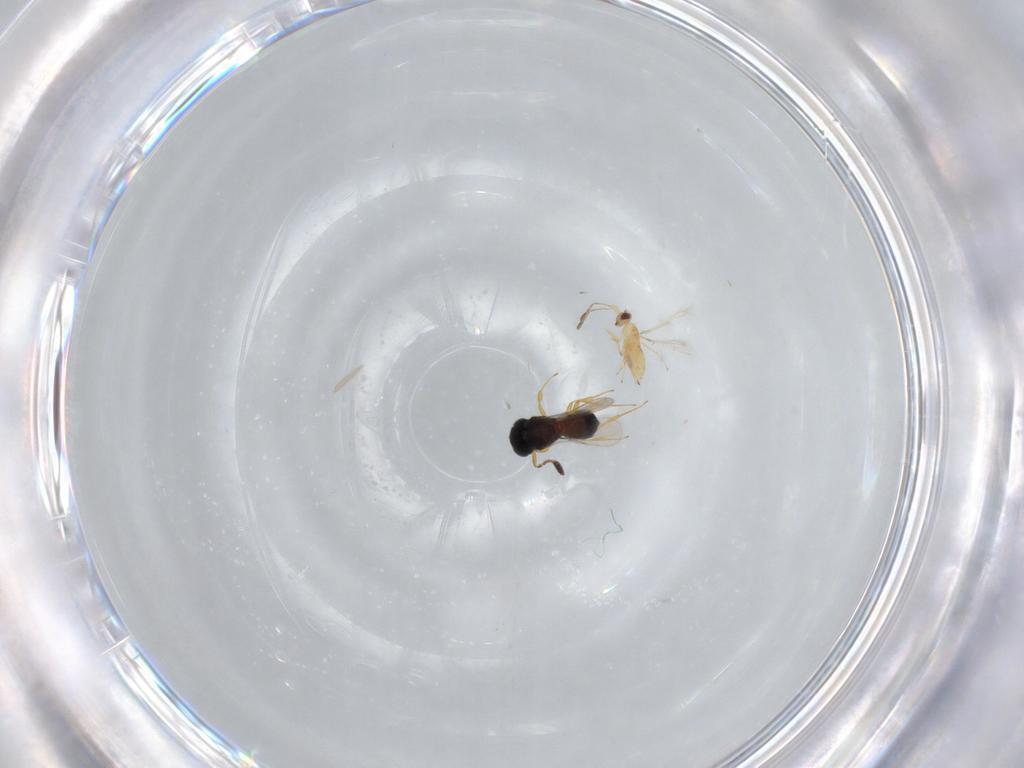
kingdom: Animalia
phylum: Arthropoda
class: Insecta
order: Hymenoptera
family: Mymaridae
